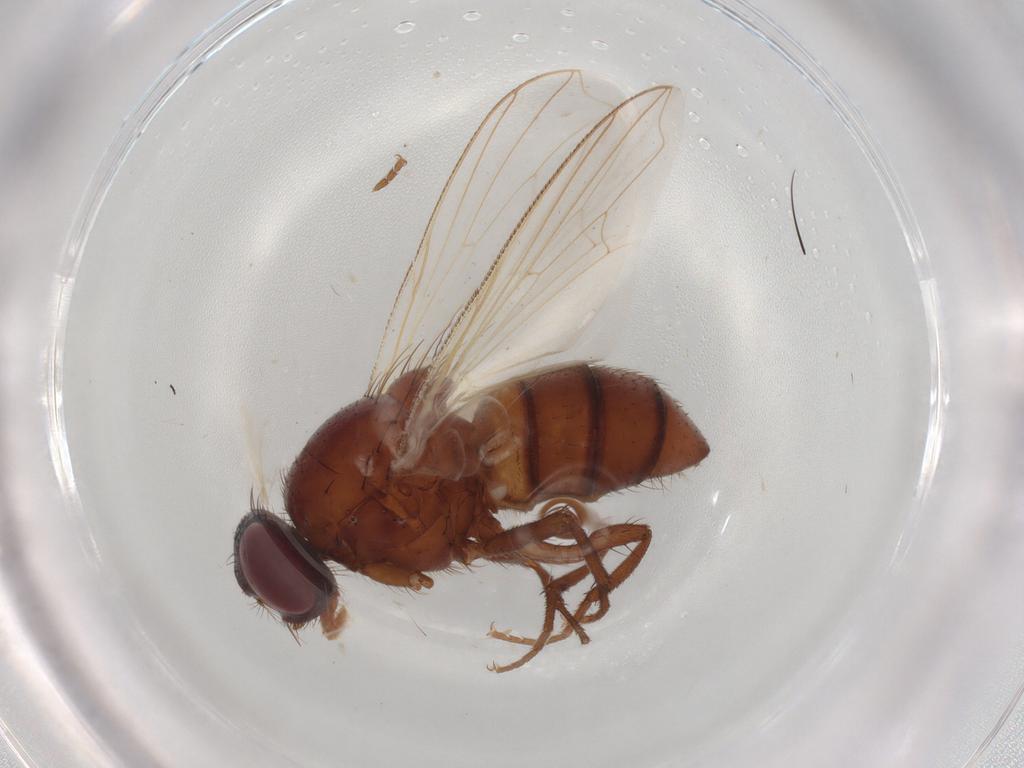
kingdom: Animalia
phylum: Arthropoda
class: Insecta
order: Diptera
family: Muscidae
